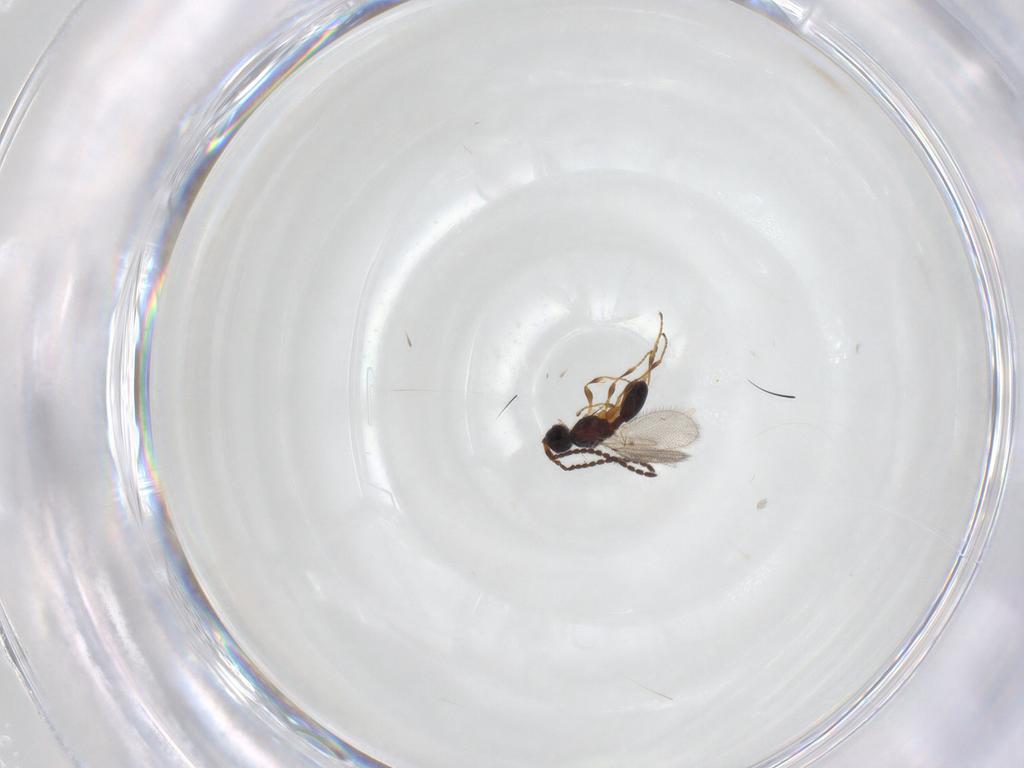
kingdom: Animalia
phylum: Arthropoda
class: Insecta
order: Hymenoptera
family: Diapriidae
